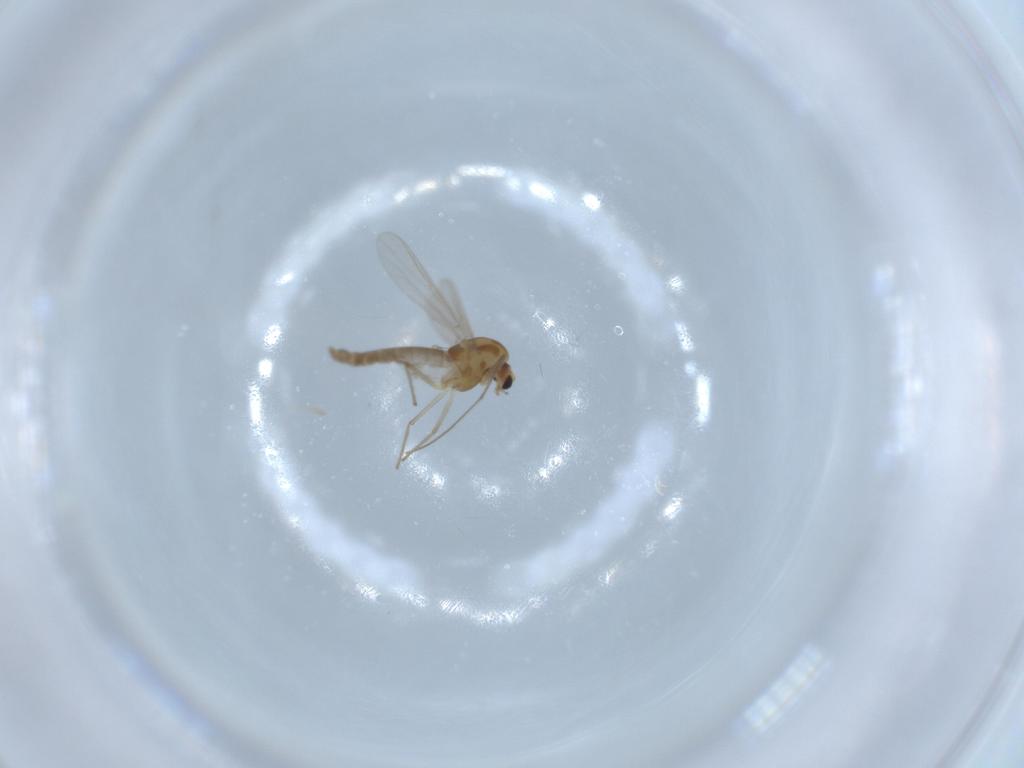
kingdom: Animalia
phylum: Arthropoda
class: Insecta
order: Diptera
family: Chironomidae
